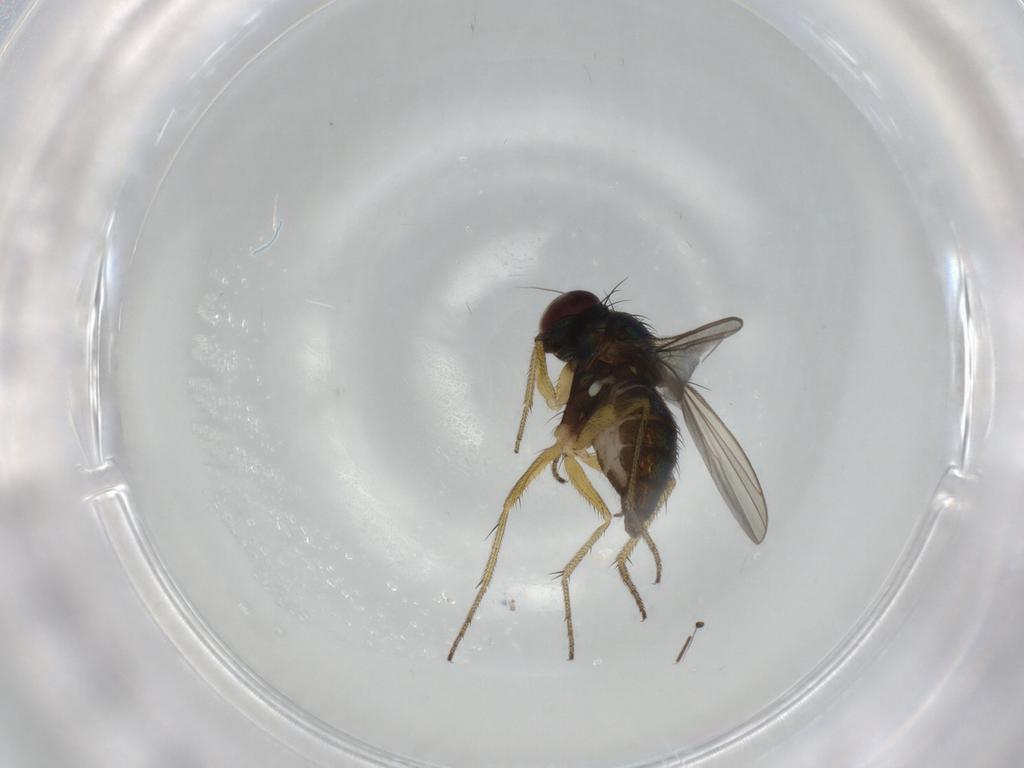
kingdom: Animalia
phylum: Arthropoda
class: Insecta
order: Diptera
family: Dolichopodidae
